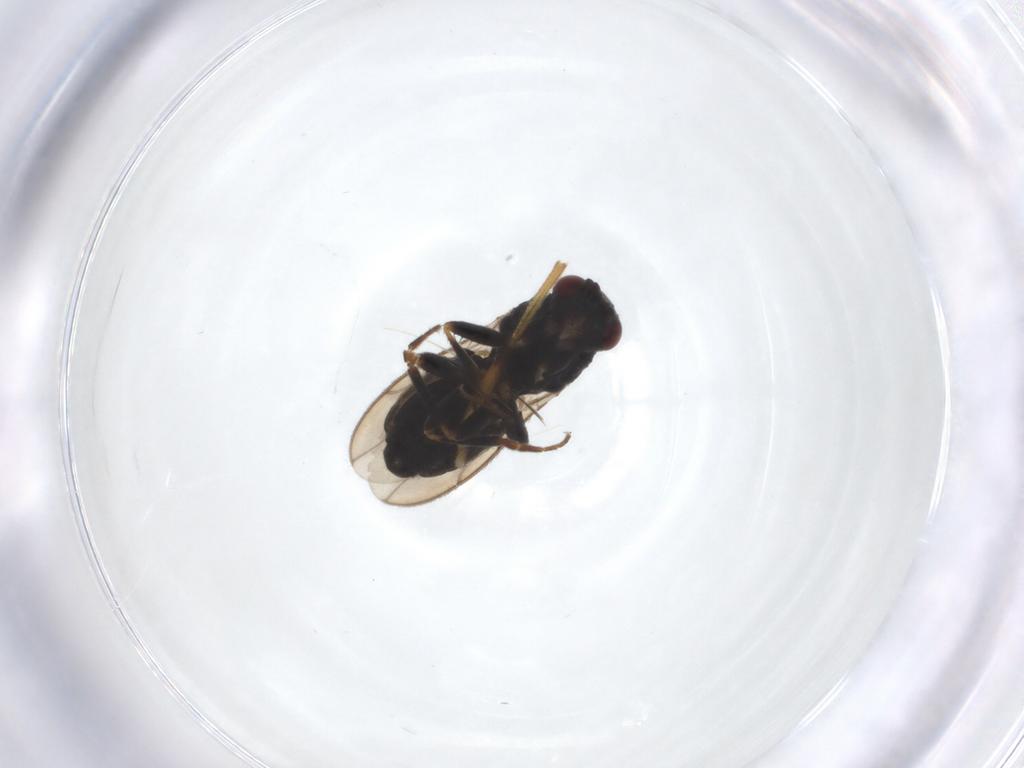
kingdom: Animalia
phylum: Arthropoda
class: Insecta
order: Diptera
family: Sphaeroceridae
